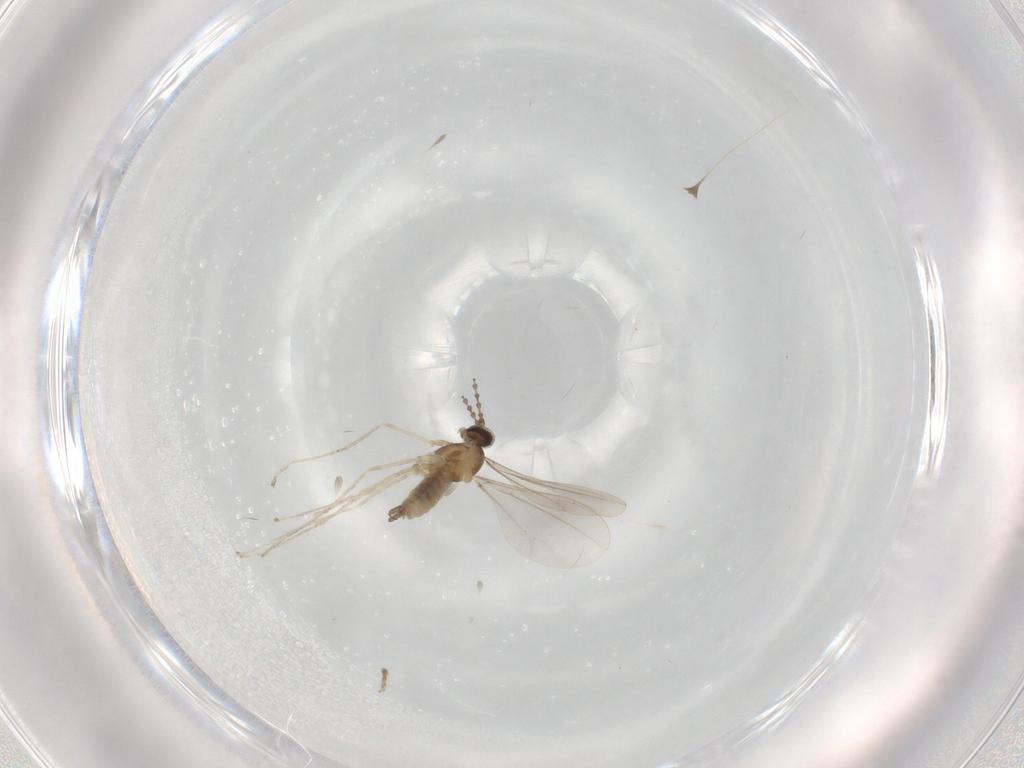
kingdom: Animalia
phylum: Arthropoda
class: Insecta
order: Diptera
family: Cecidomyiidae
